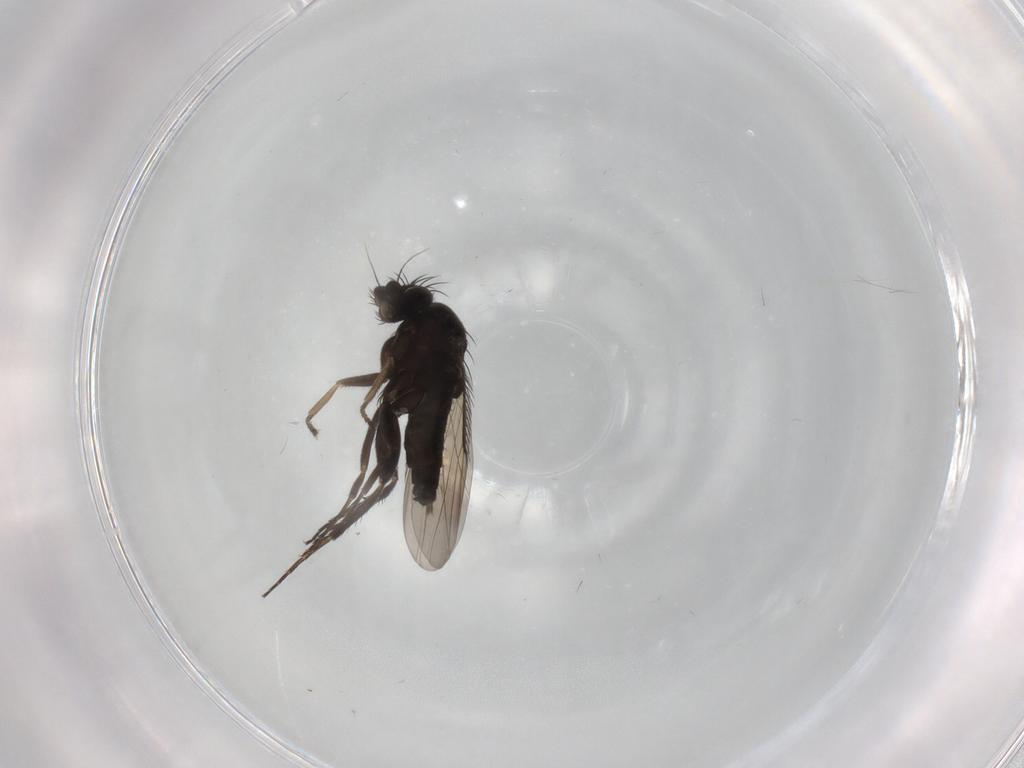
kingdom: Animalia
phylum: Arthropoda
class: Insecta
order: Diptera
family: Phoridae
